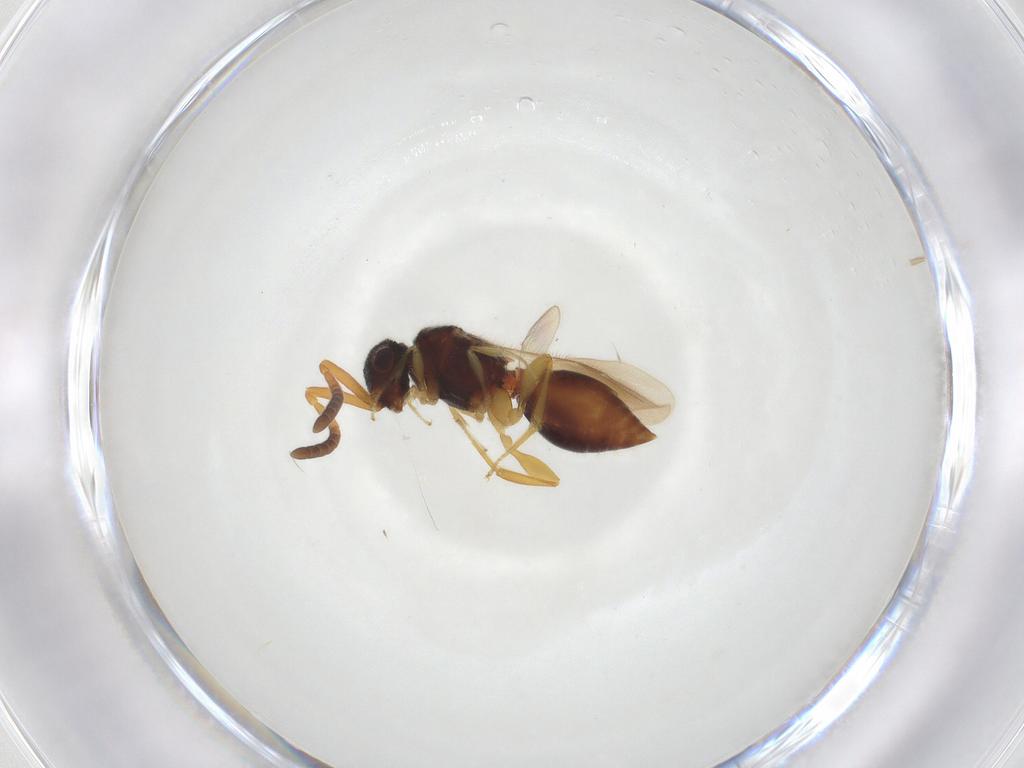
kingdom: Animalia
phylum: Arthropoda
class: Insecta
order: Hymenoptera
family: Megaspilidae
